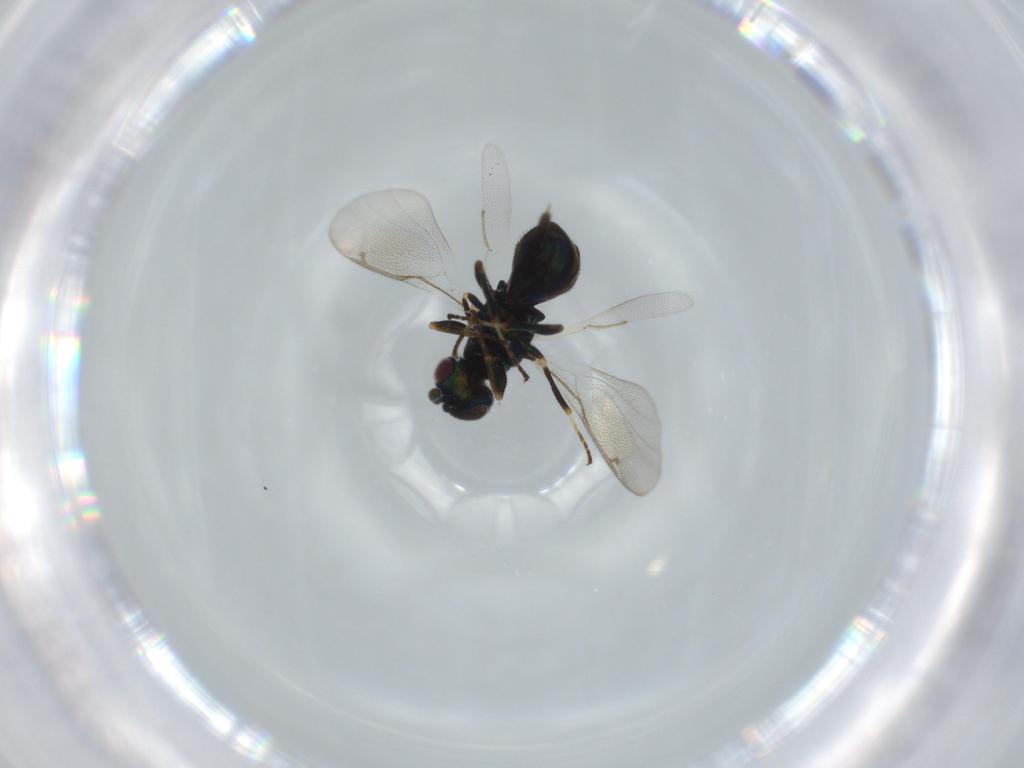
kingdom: Animalia
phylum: Arthropoda
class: Insecta
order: Hymenoptera
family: Torymidae
